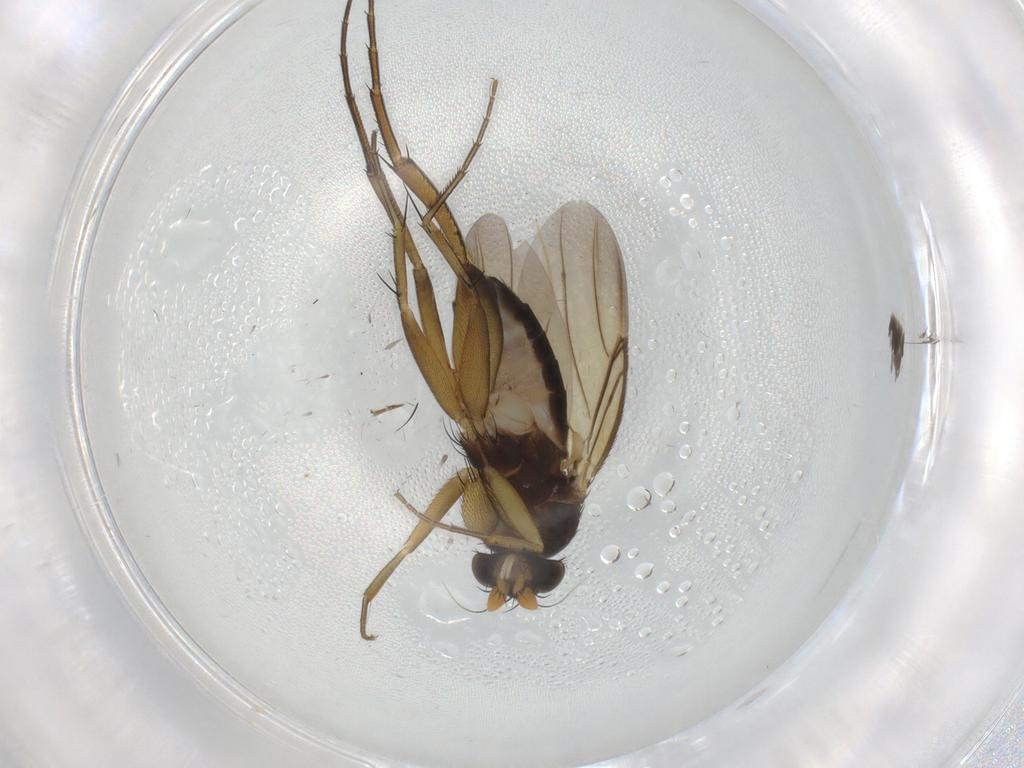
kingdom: Animalia
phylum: Arthropoda
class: Insecta
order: Diptera
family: Phoridae
